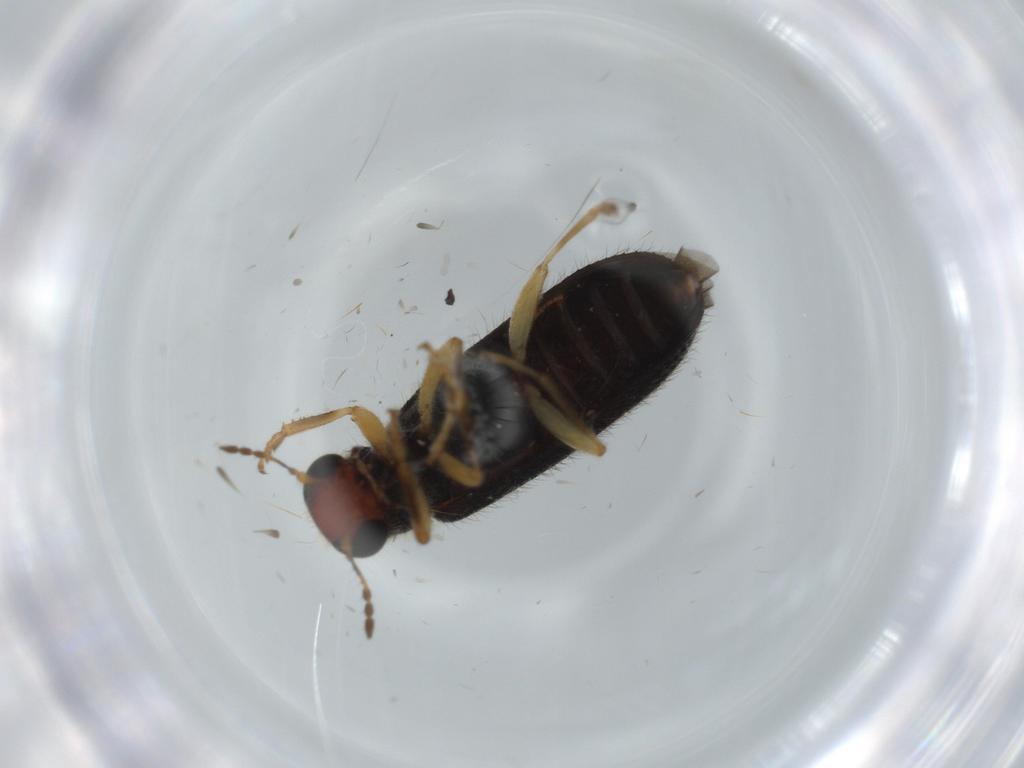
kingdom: Animalia
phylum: Arthropoda
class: Insecta
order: Coleoptera
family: Cleridae
